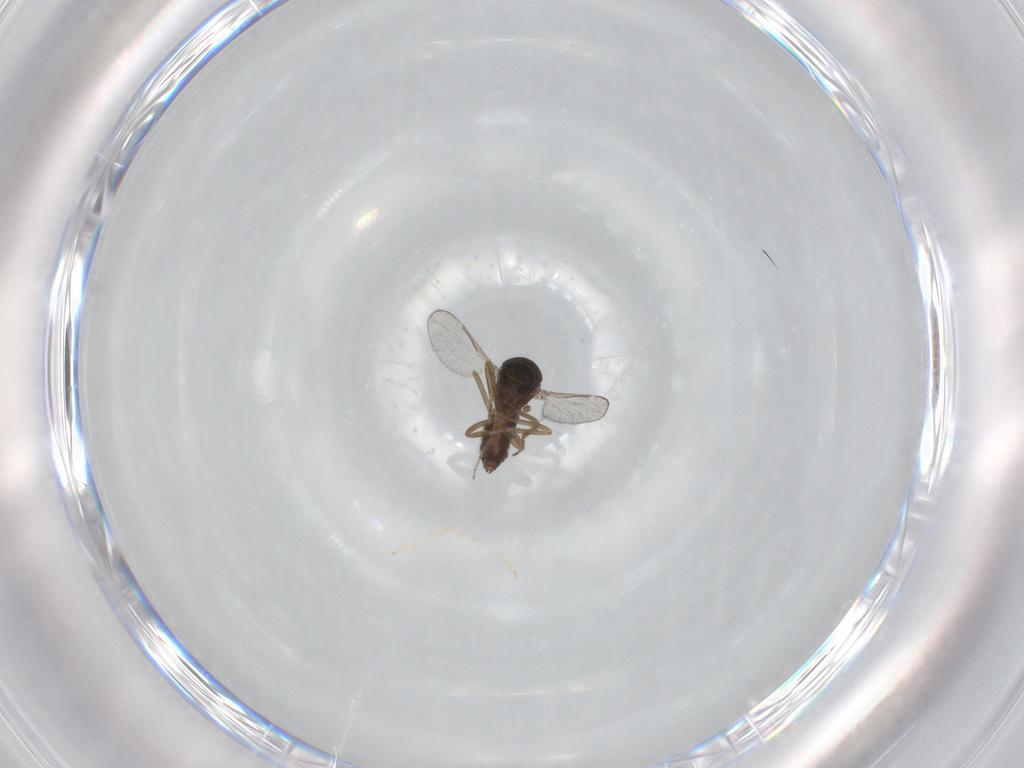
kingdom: Animalia
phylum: Arthropoda
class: Insecta
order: Diptera
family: Ceratopogonidae
